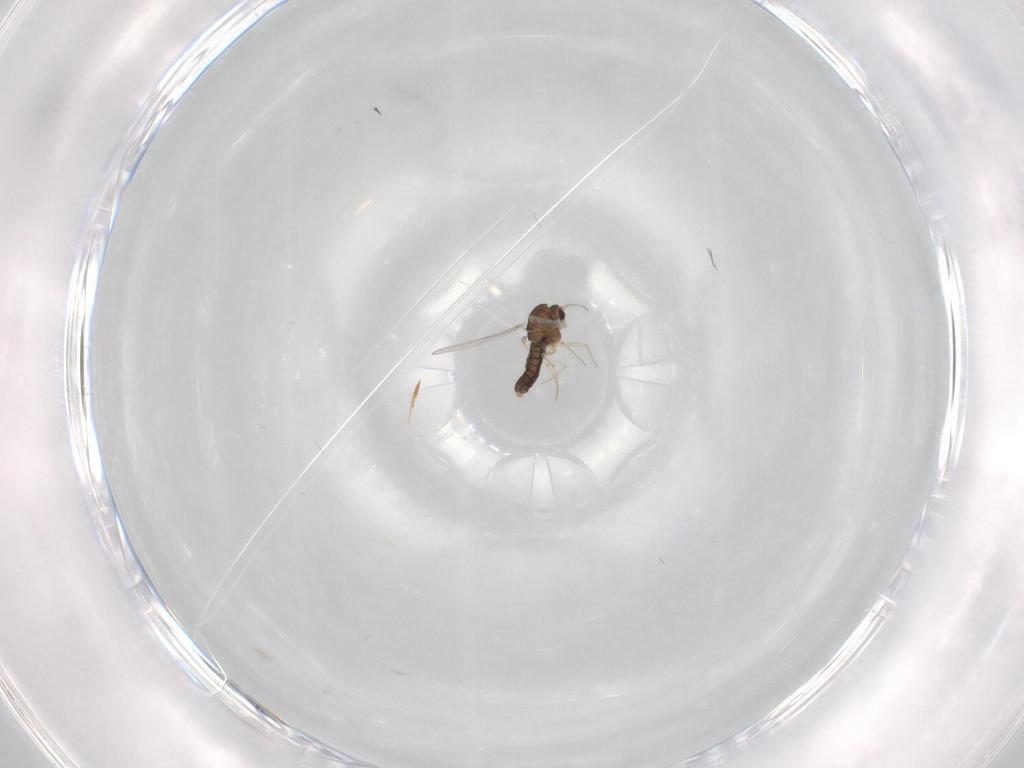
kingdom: Animalia
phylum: Arthropoda
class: Insecta
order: Diptera
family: Chironomidae
